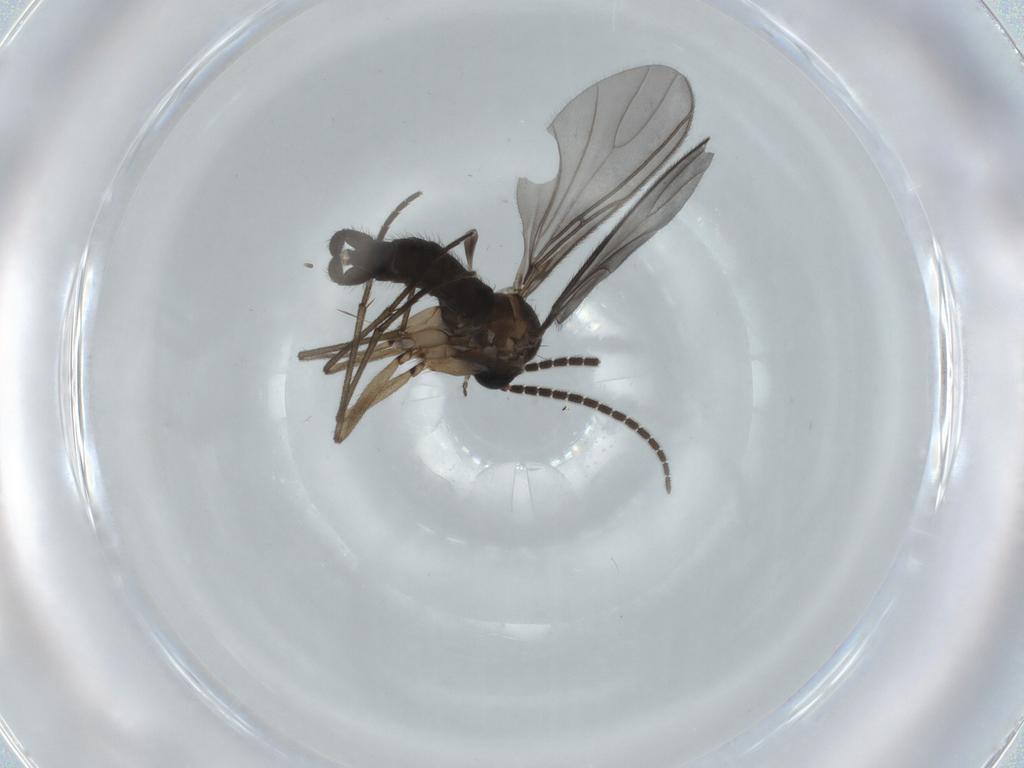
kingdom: Animalia
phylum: Arthropoda
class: Insecta
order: Diptera
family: Sciaridae
